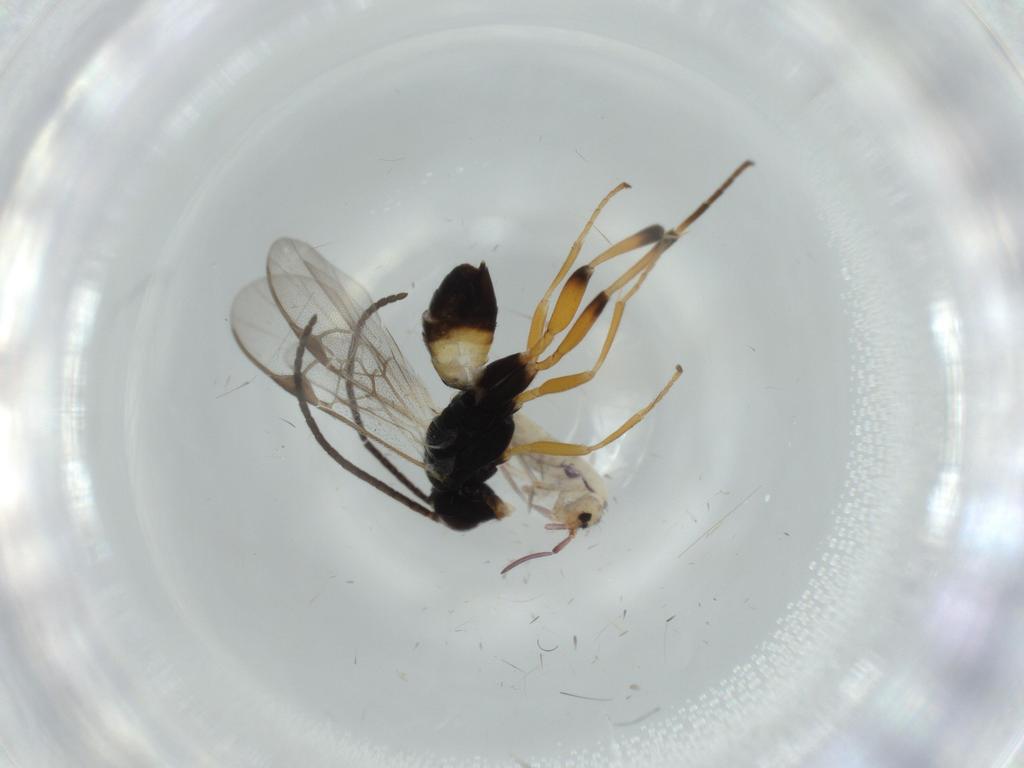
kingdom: Animalia
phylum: Arthropoda
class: Collembola
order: Entomobryomorpha
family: Entomobryidae
